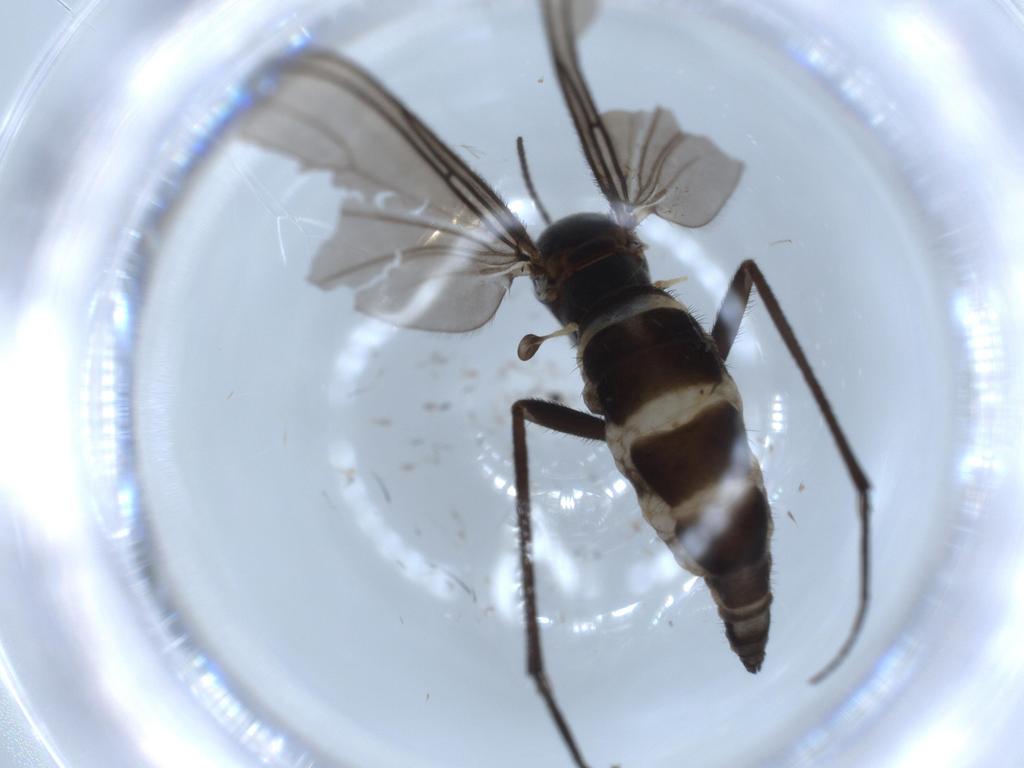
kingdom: Animalia
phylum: Arthropoda
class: Insecta
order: Diptera
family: Sciaridae
